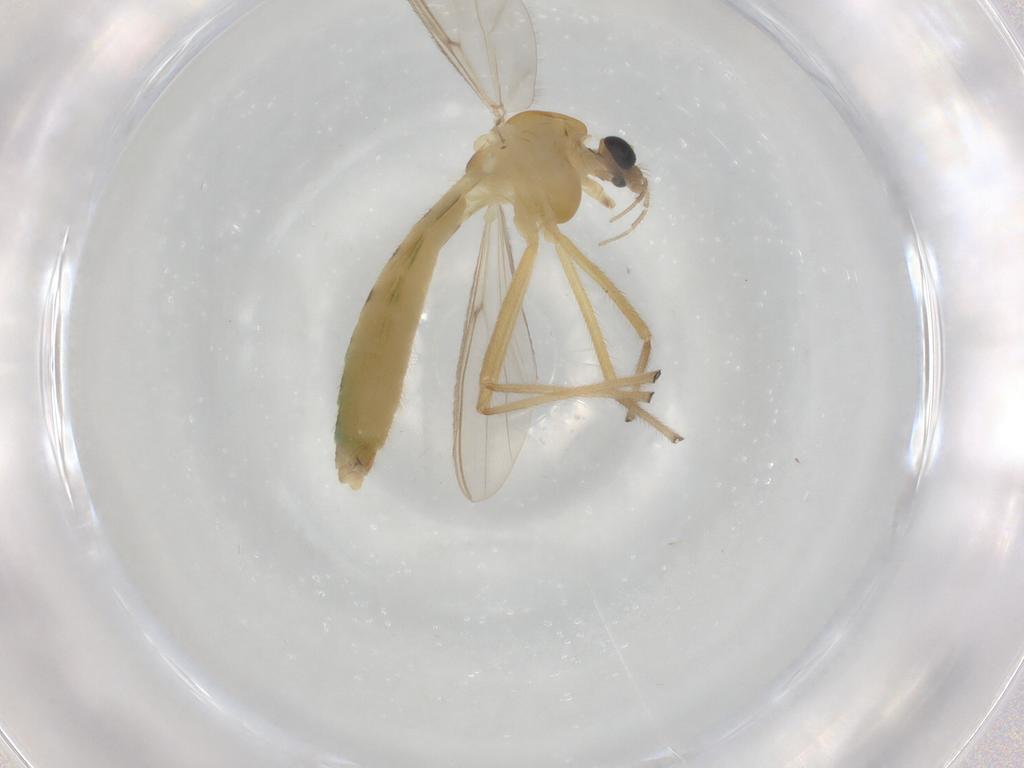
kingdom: Animalia
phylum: Arthropoda
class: Insecta
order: Diptera
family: Chironomidae
